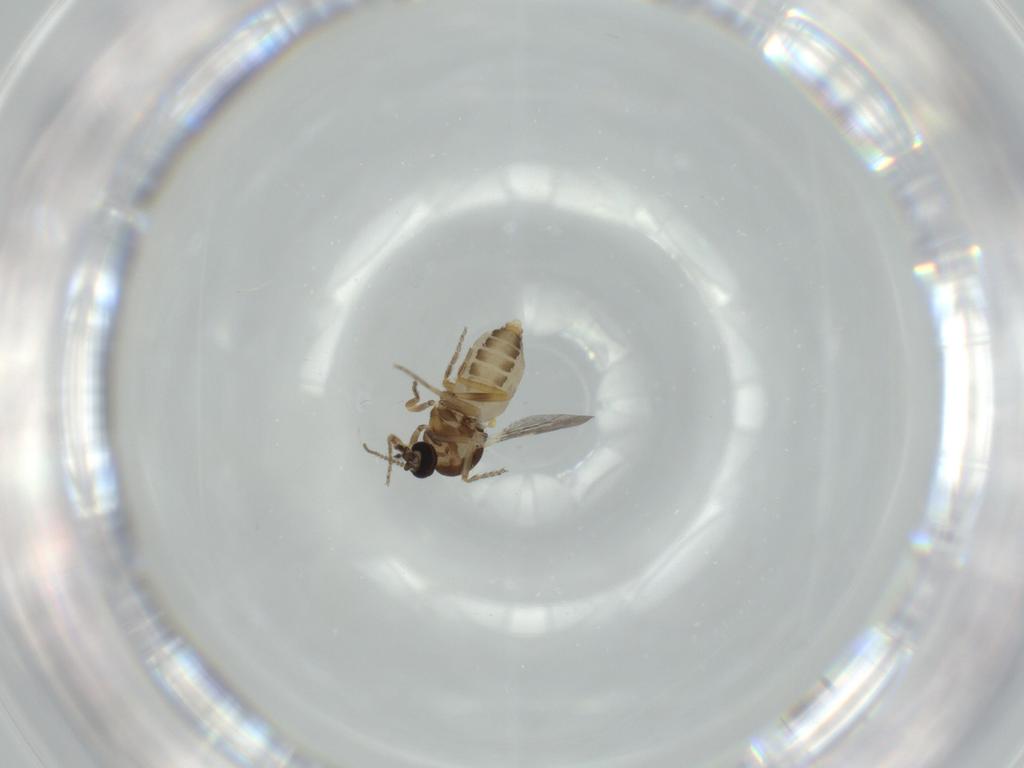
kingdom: Animalia
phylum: Arthropoda
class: Insecta
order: Diptera
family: Ceratopogonidae
